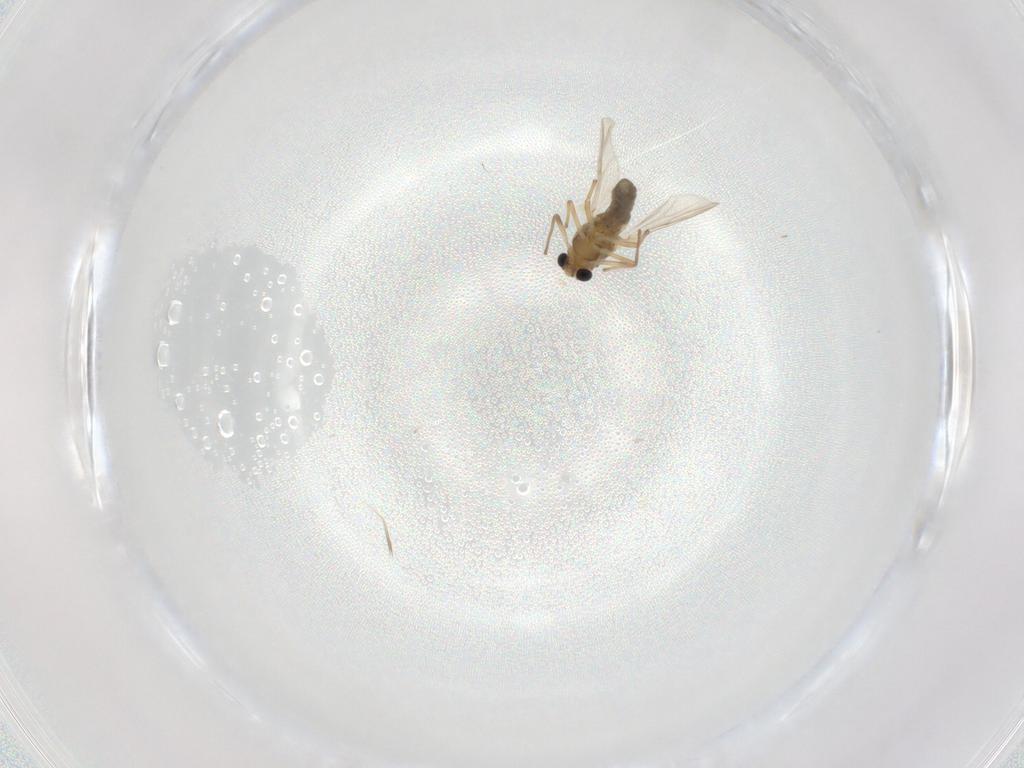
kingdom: Animalia
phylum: Arthropoda
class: Insecta
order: Diptera
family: Chironomidae
